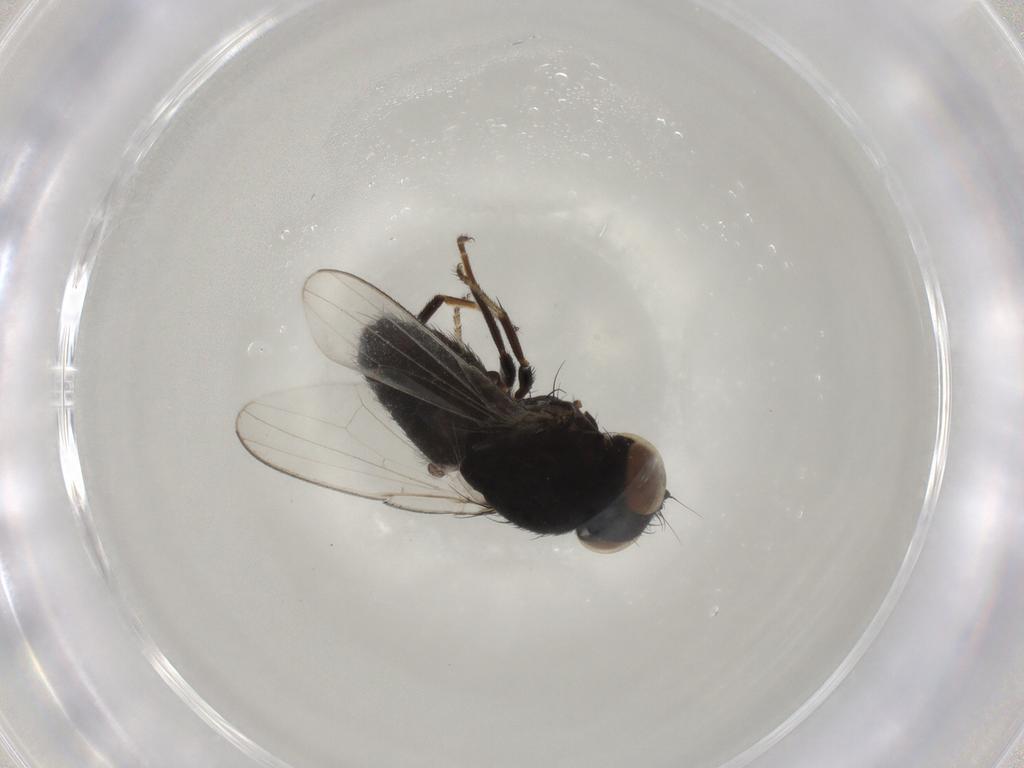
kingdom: Animalia
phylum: Arthropoda
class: Insecta
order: Diptera
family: Milichiidae
